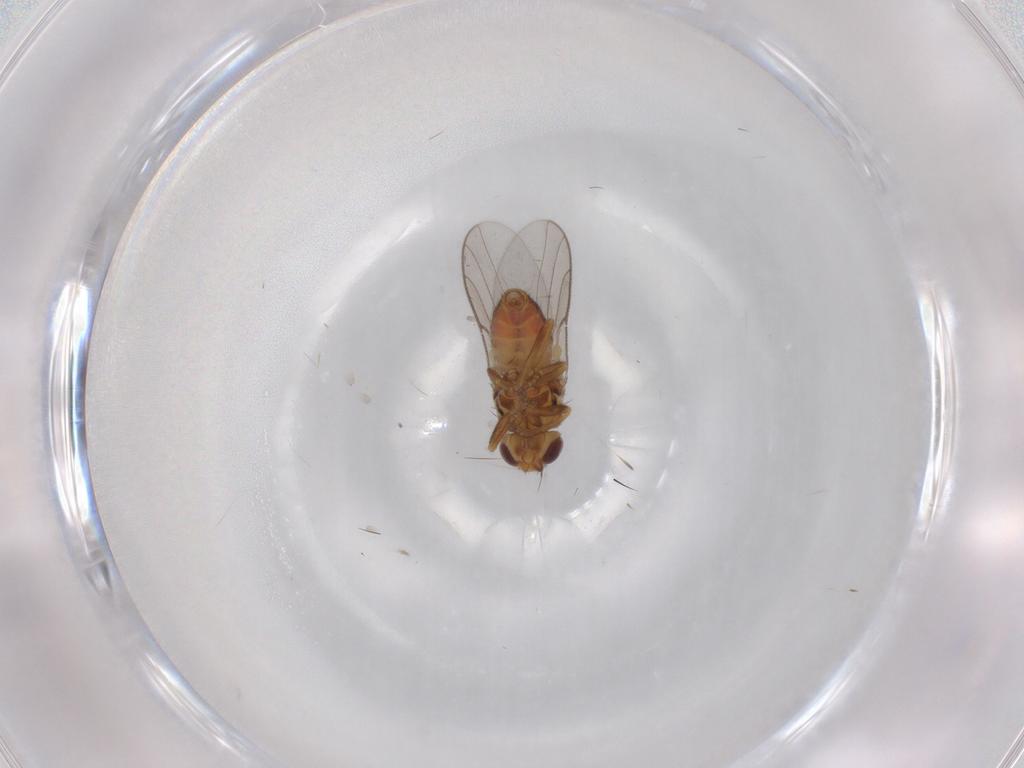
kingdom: Animalia
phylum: Arthropoda
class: Insecta
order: Diptera
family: Chloropidae
